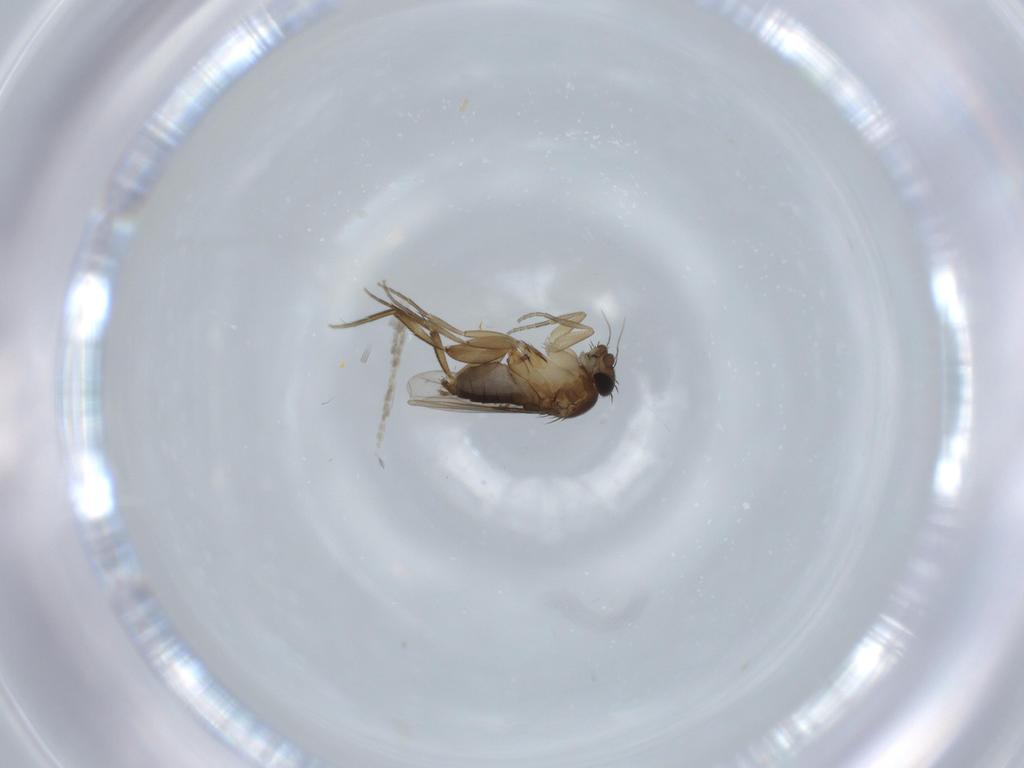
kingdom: Animalia
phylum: Arthropoda
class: Insecta
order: Diptera
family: Phoridae
